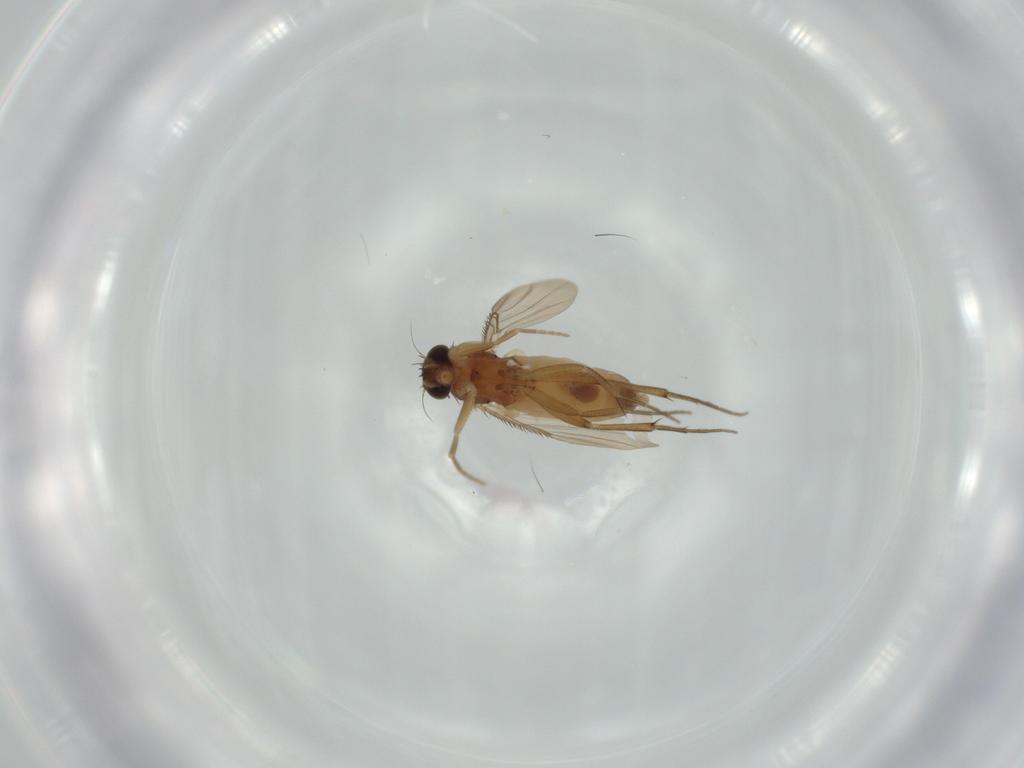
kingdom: Animalia
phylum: Arthropoda
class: Insecta
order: Diptera
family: Phoridae
